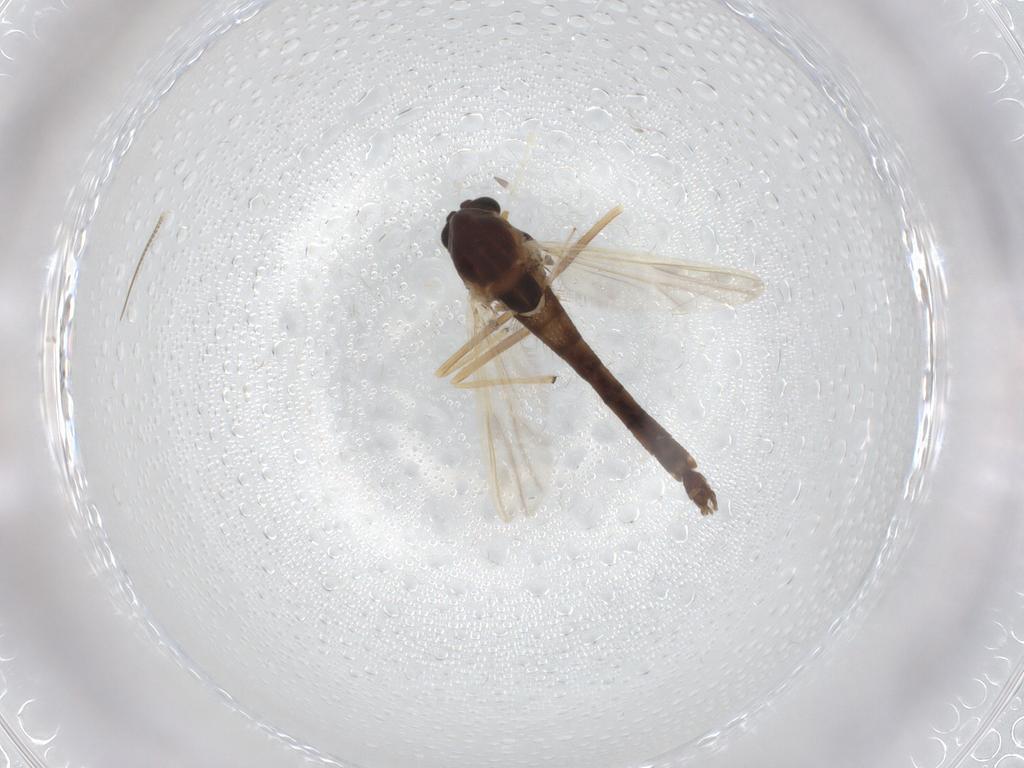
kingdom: Animalia
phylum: Arthropoda
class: Insecta
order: Diptera
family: Chironomidae
